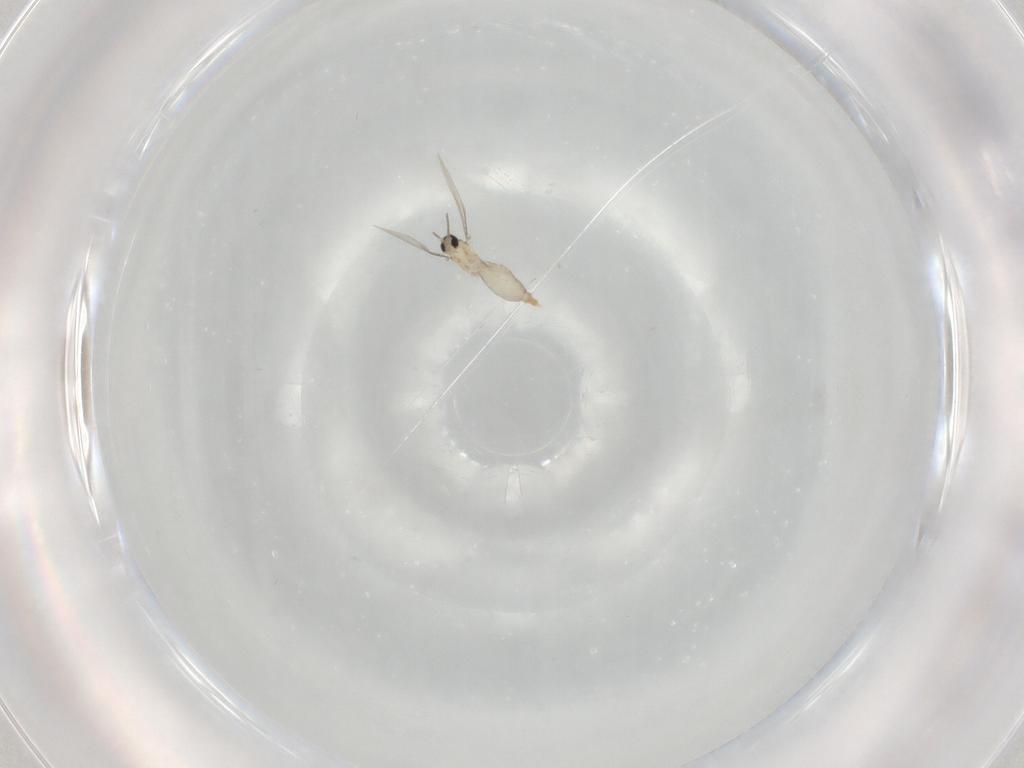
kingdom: Animalia
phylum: Arthropoda
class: Insecta
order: Diptera
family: Cecidomyiidae
